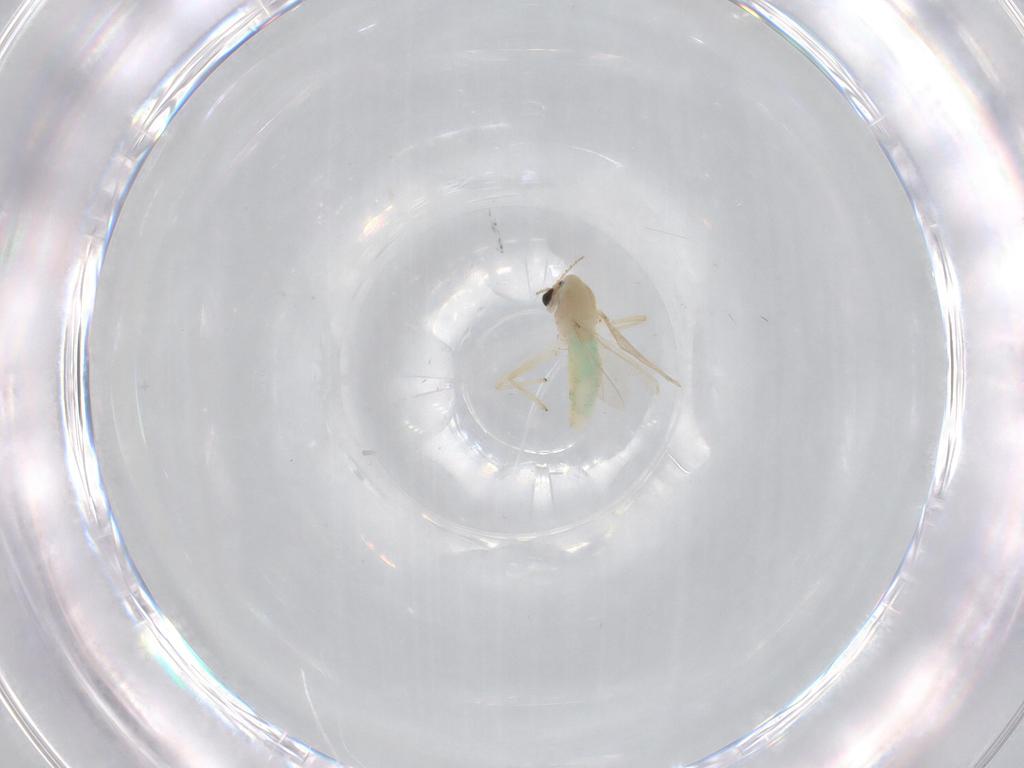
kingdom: Animalia
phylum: Arthropoda
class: Insecta
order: Diptera
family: Chironomidae
